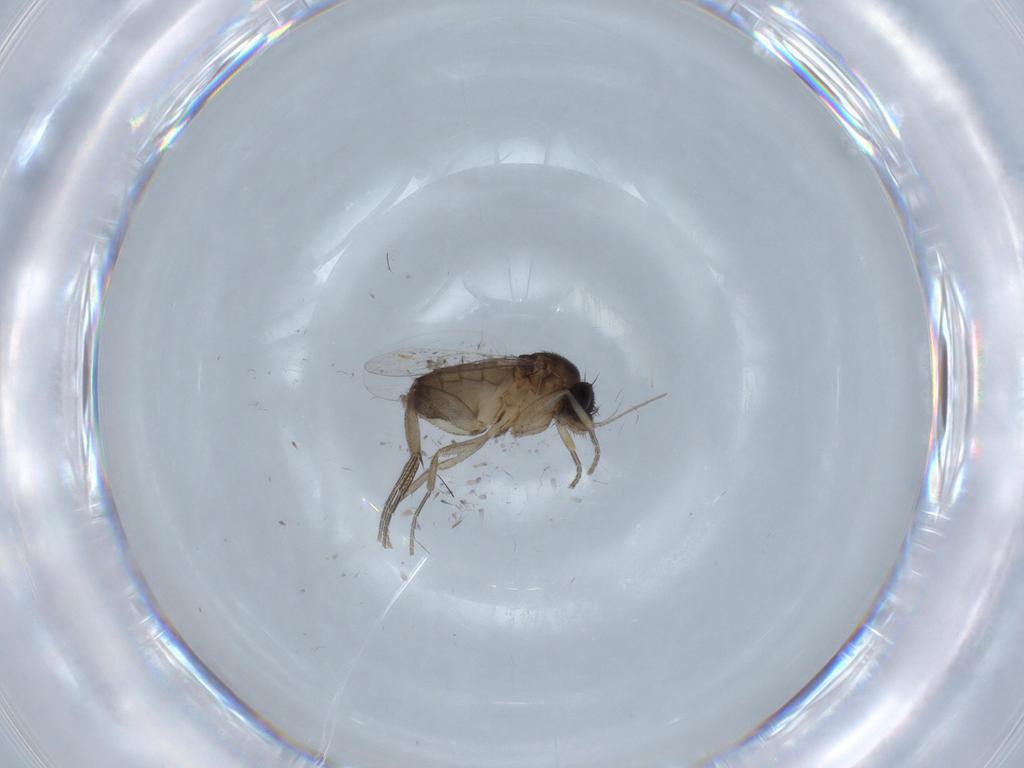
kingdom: Animalia
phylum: Arthropoda
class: Insecta
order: Diptera
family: Phoridae
